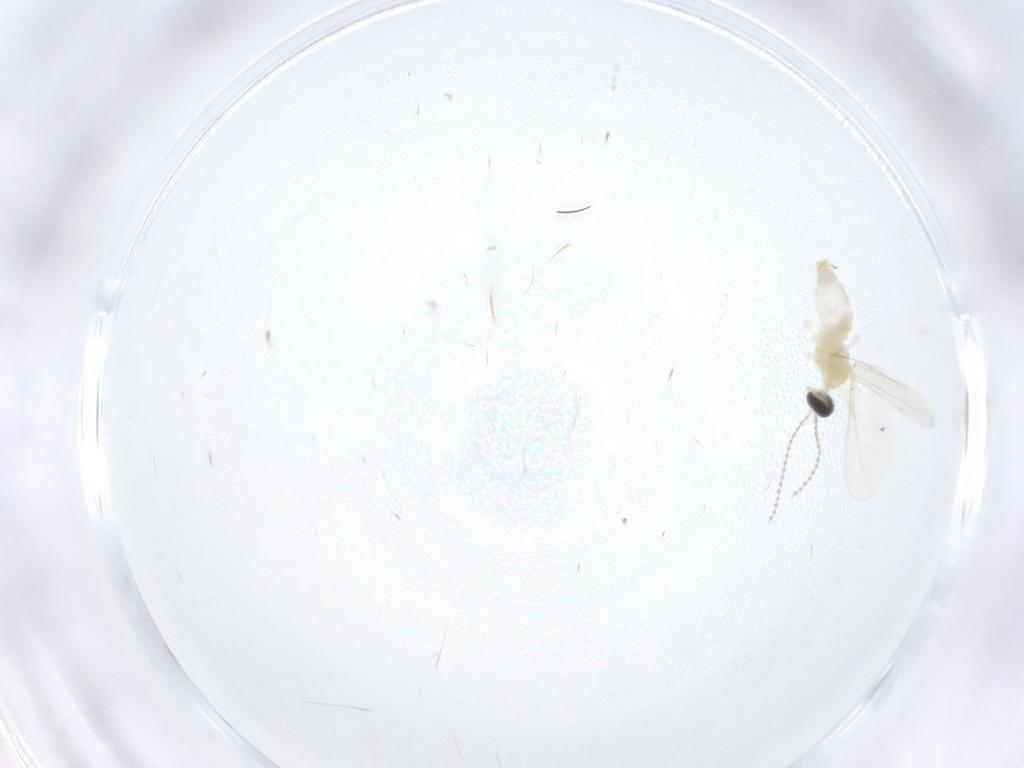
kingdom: Animalia
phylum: Arthropoda
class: Insecta
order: Diptera
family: Cecidomyiidae
